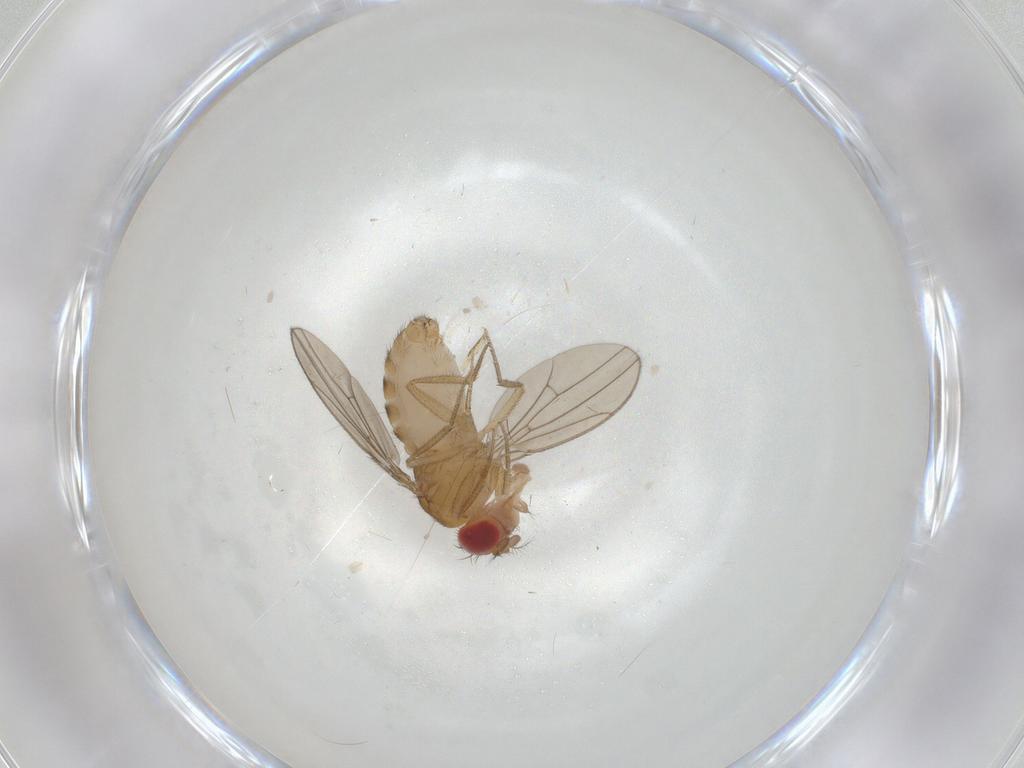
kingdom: Animalia
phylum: Arthropoda
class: Insecta
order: Diptera
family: Drosophilidae
